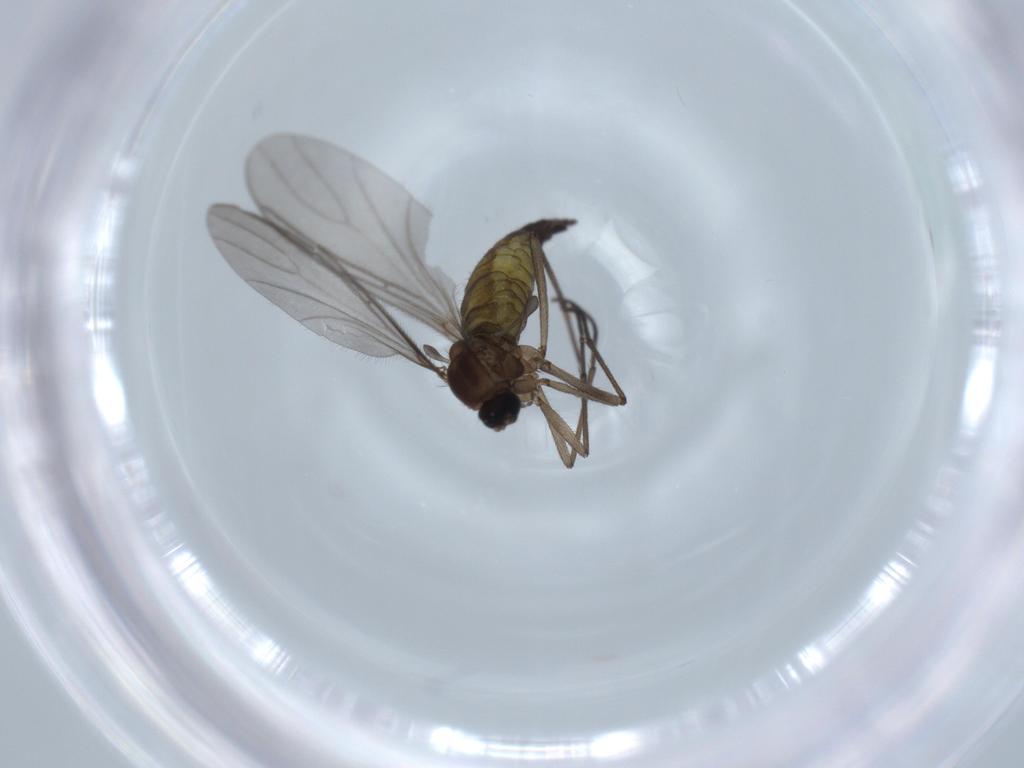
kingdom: Animalia
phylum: Arthropoda
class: Insecta
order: Diptera
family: Sciaridae
